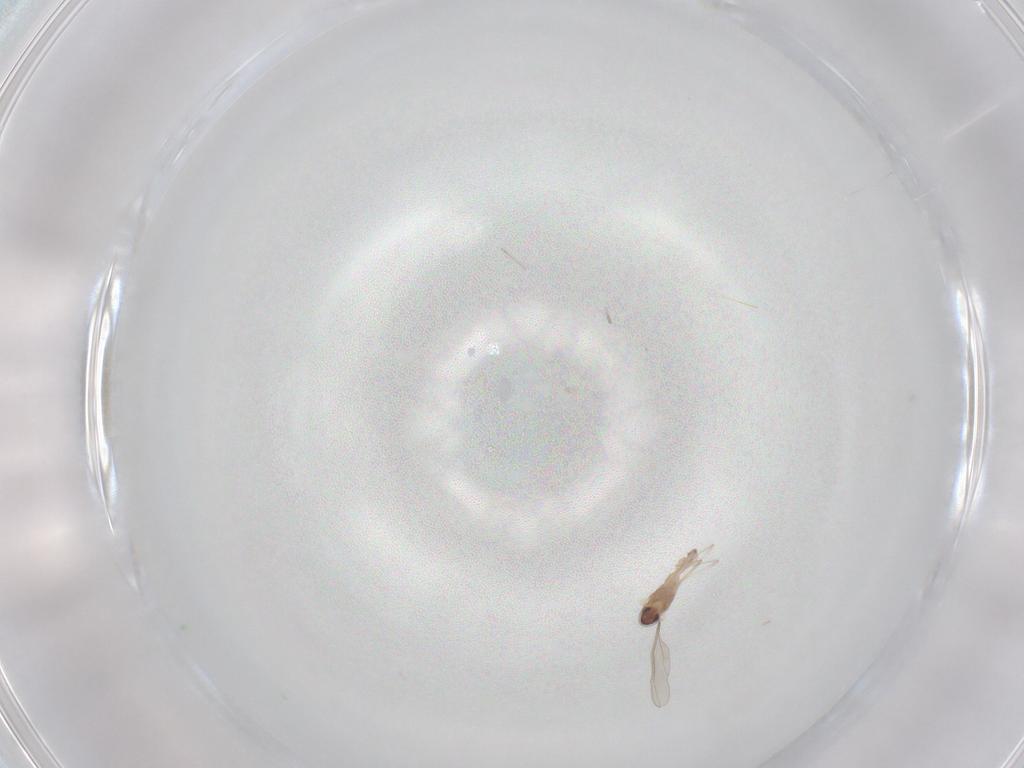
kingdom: Animalia
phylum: Arthropoda
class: Insecta
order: Diptera
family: Cecidomyiidae
